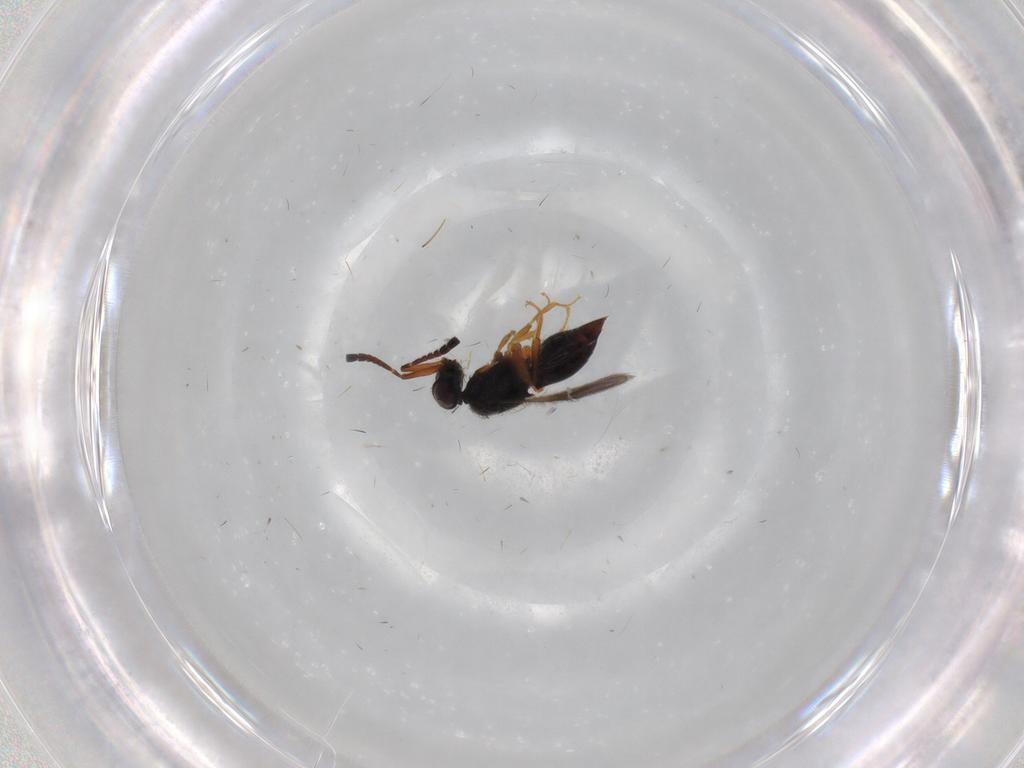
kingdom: Animalia
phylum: Arthropoda
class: Insecta
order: Hymenoptera
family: Ceraphronidae
